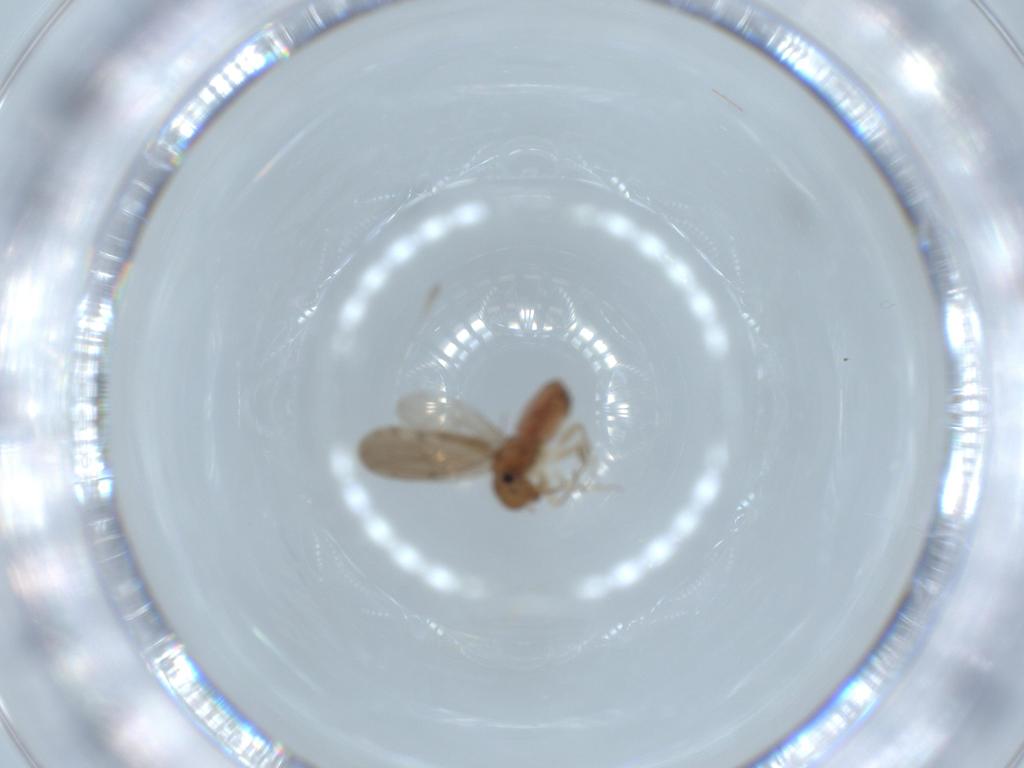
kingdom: Animalia
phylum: Arthropoda
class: Insecta
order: Psocodea
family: Ectopsocidae
